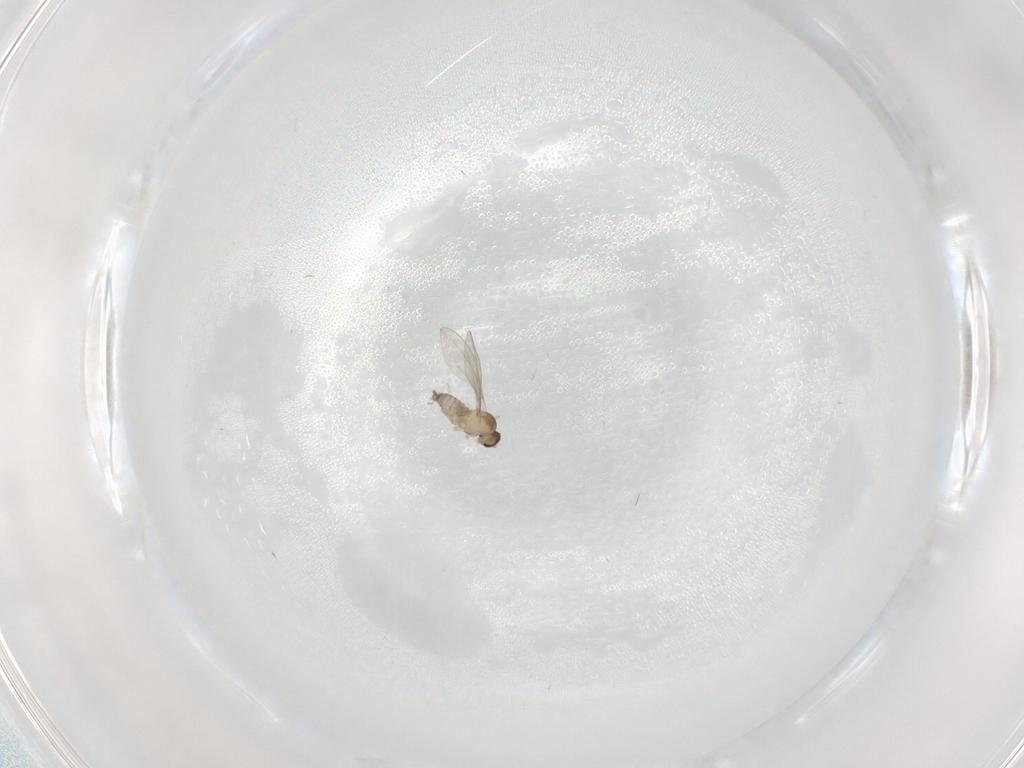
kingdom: Animalia
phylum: Arthropoda
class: Insecta
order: Diptera
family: Cecidomyiidae
